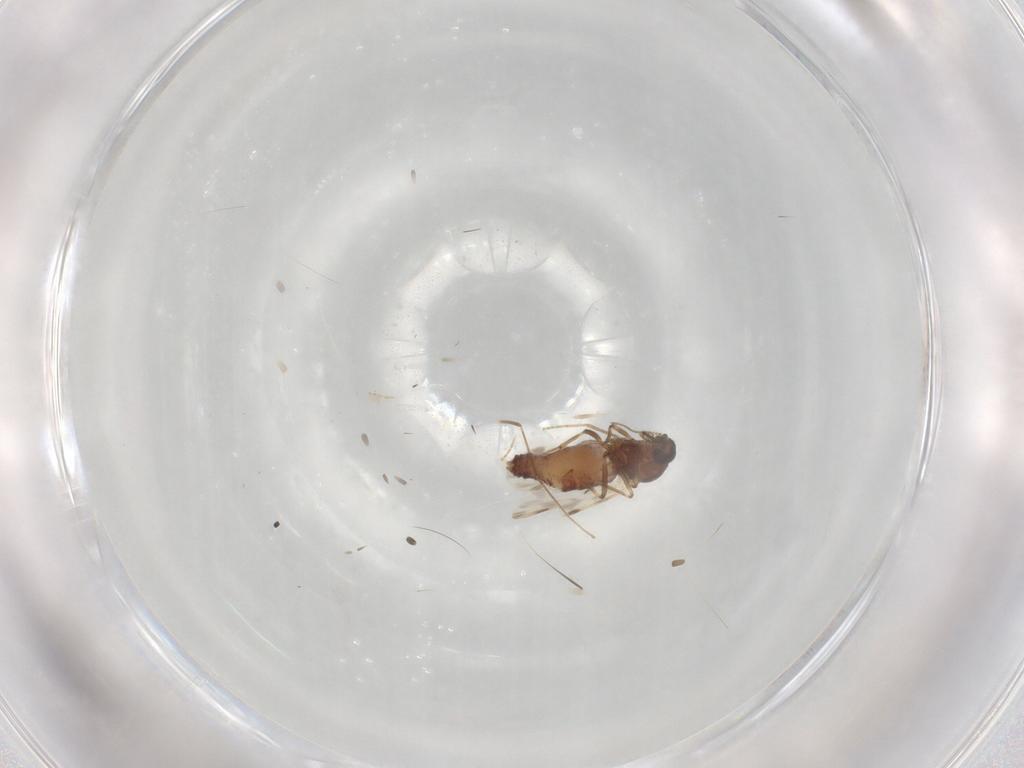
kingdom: Animalia
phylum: Arthropoda
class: Insecta
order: Diptera
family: Ceratopogonidae
